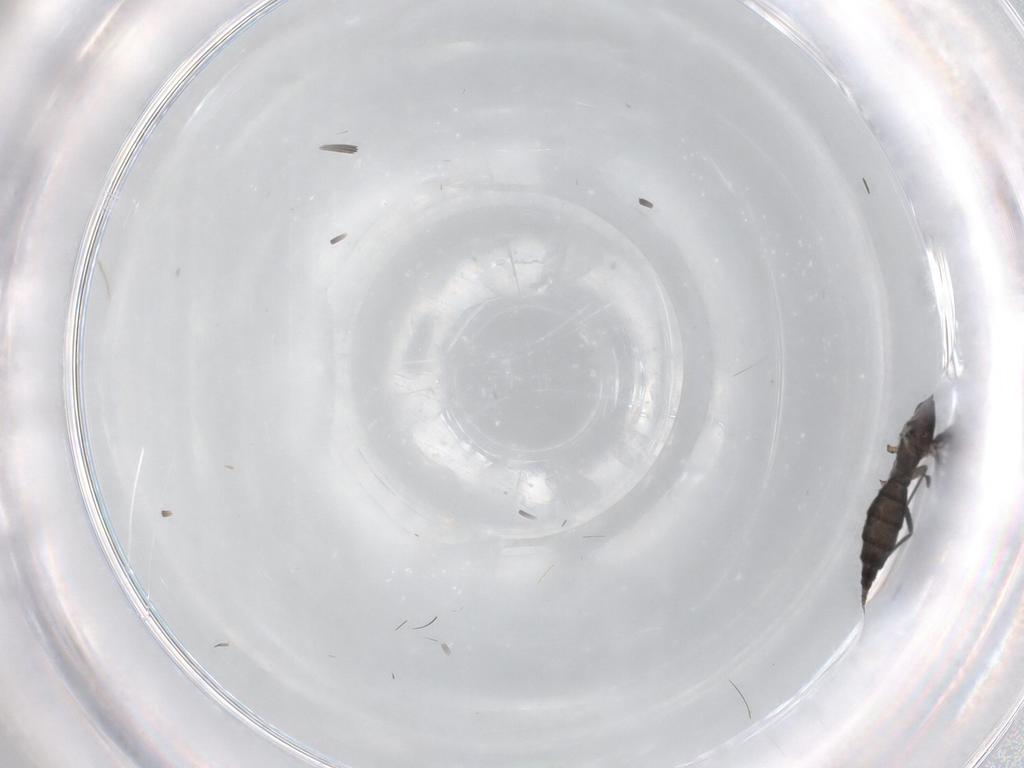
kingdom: Animalia
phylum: Arthropoda
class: Insecta
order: Diptera
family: Sciaridae
